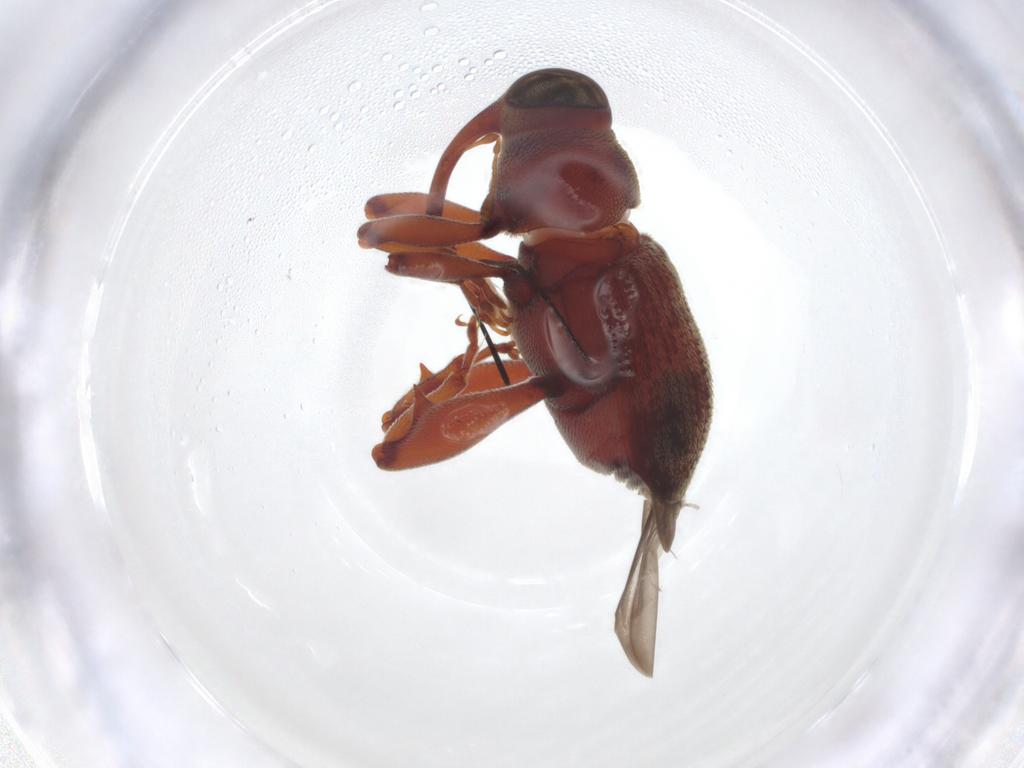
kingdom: Animalia
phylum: Arthropoda
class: Insecta
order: Coleoptera
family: Curculionidae
